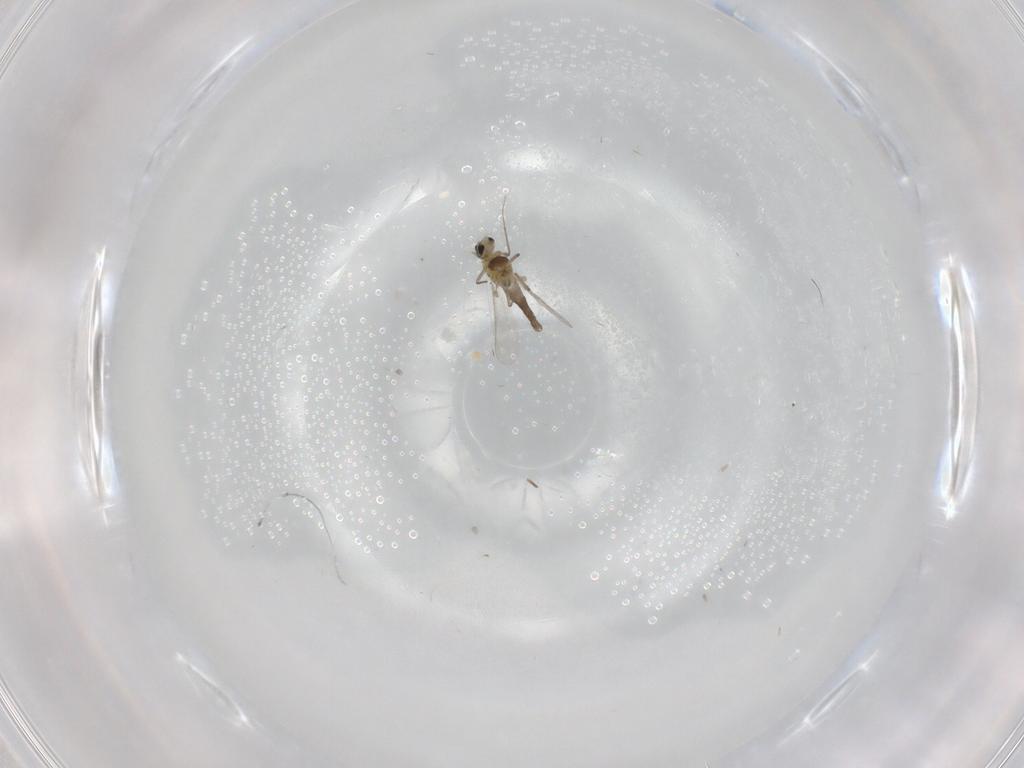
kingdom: Animalia
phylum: Arthropoda
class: Insecta
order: Diptera
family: Chironomidae
